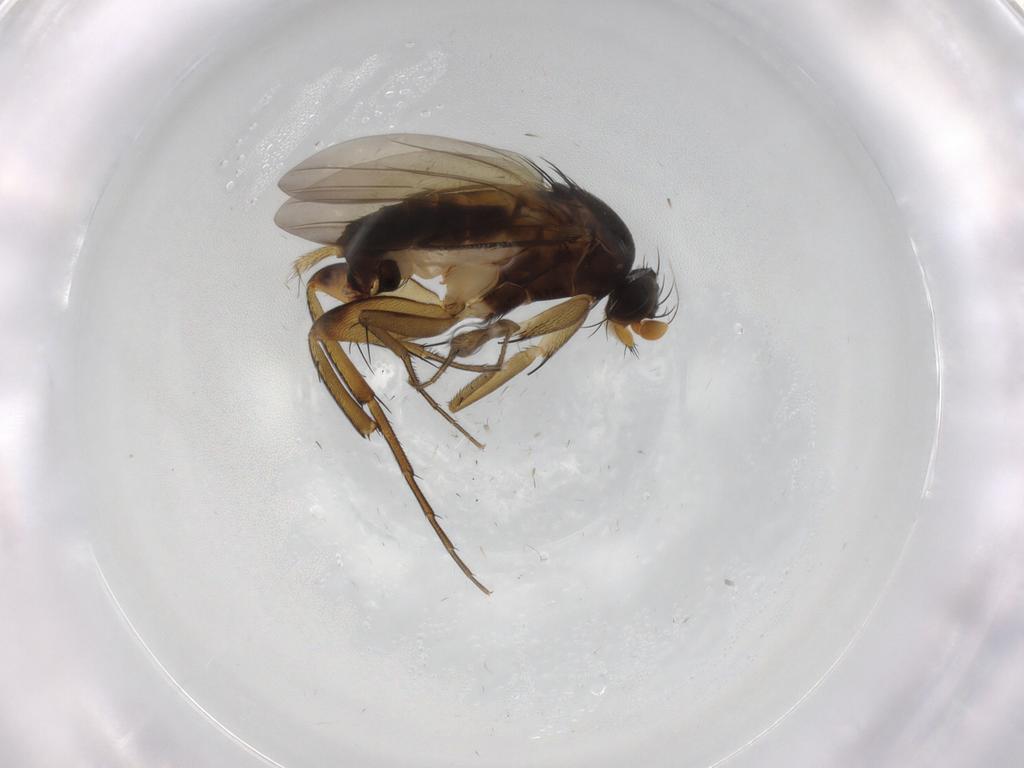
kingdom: Animalia
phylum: Arthropoda
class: Insecta
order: Diptera
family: Phoridae
